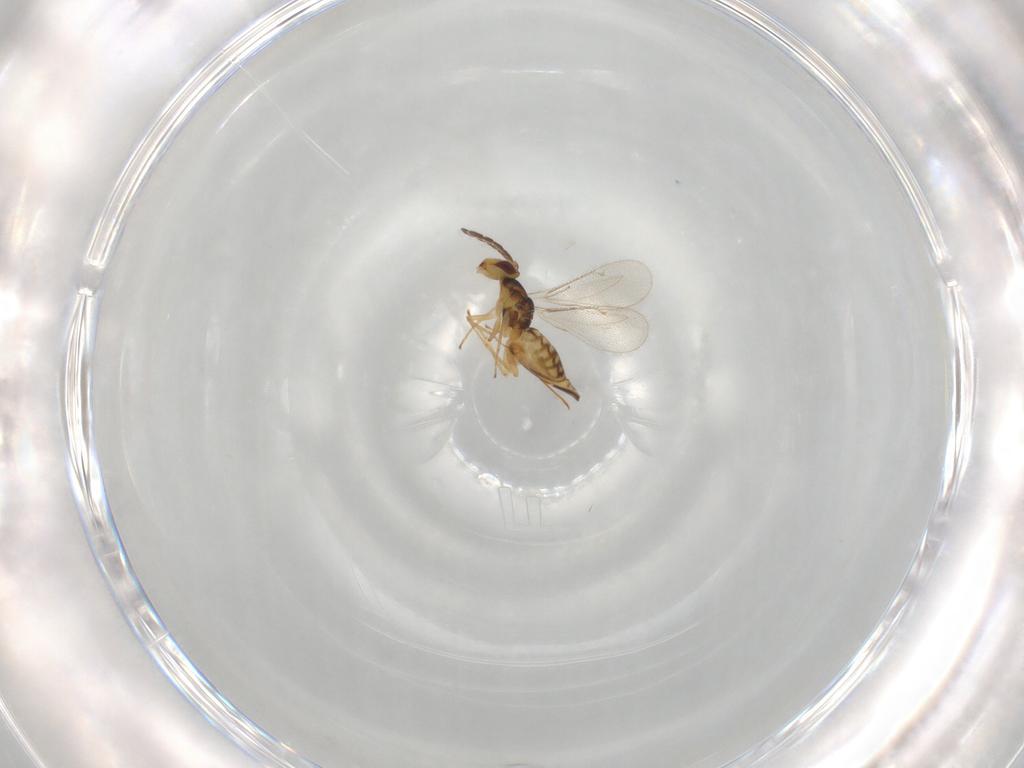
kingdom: Animalia
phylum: Arthropoda
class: Insecta
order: Hymenoptera
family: Eulophidae
